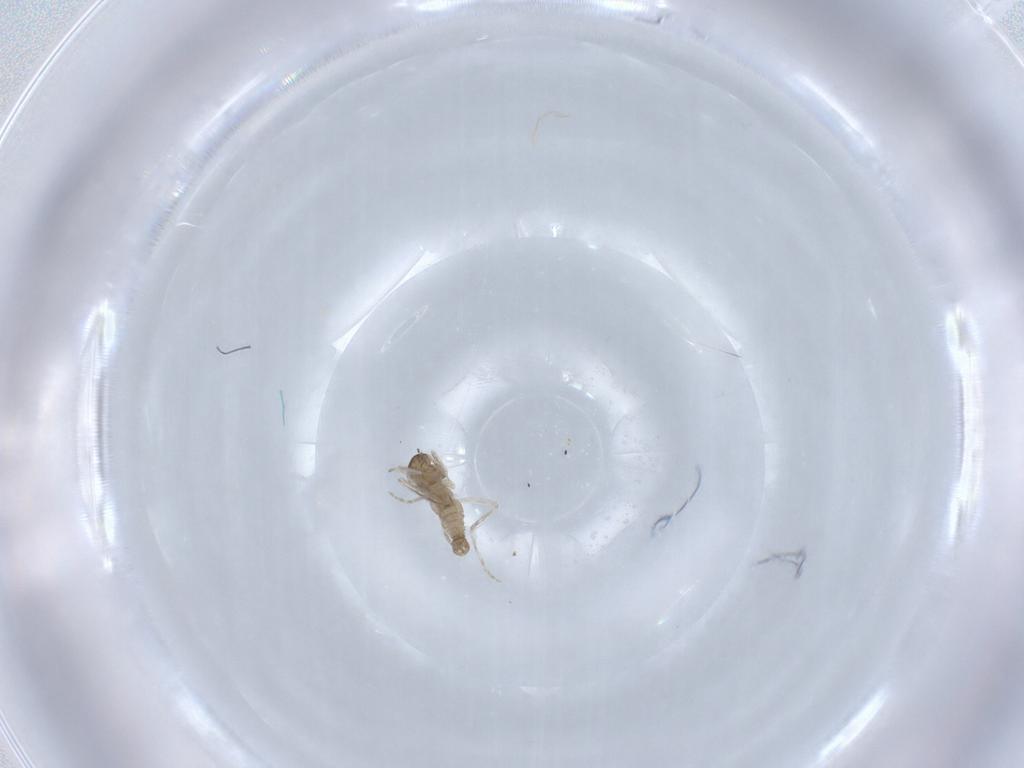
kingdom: Animalia
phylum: Arthropoda
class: Insecta
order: Diptera
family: Cecidomyiidae
